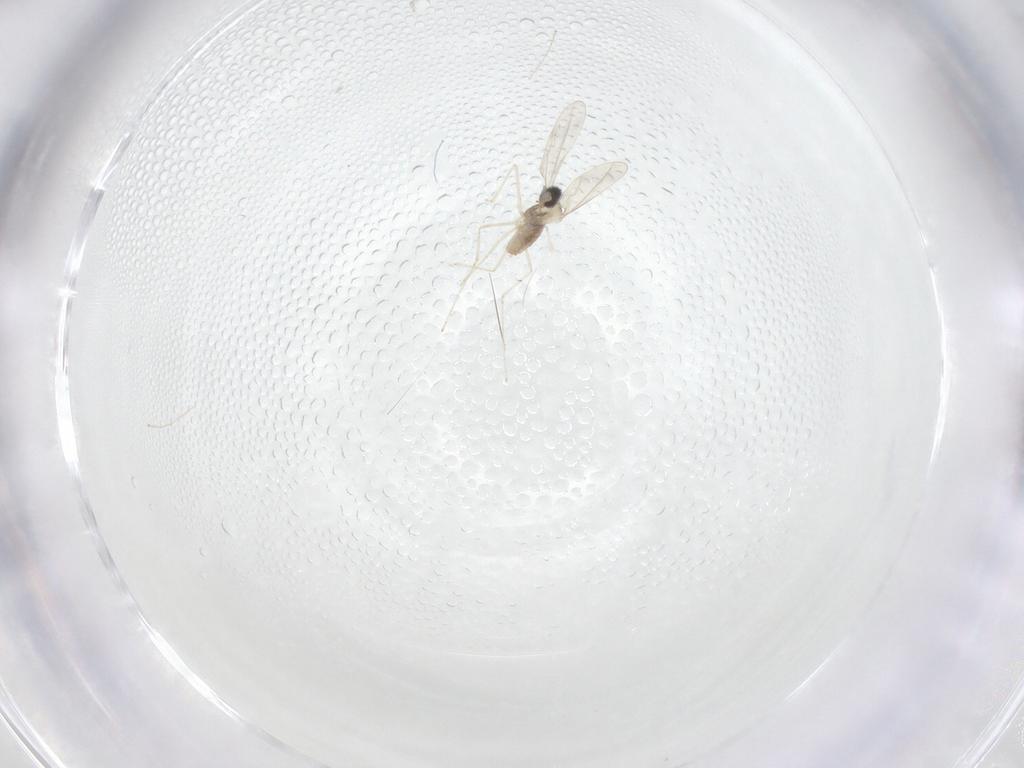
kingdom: Animalia
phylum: Arthropoda
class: Insecta
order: Diptera
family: Cecidomyiidae
